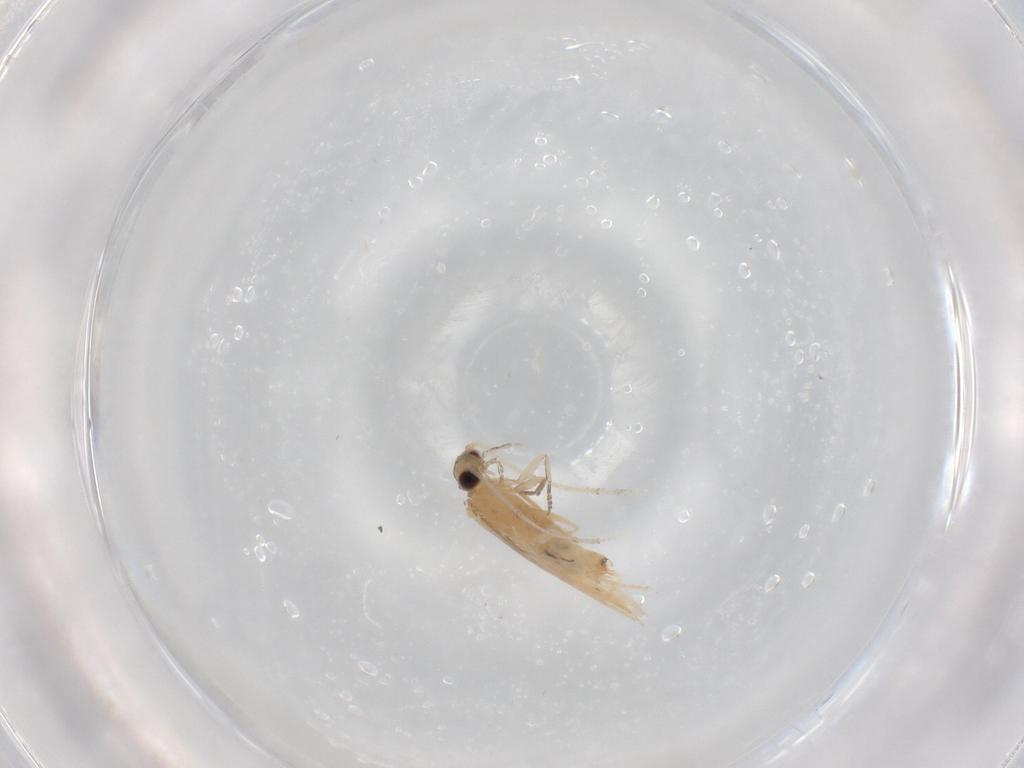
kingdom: Animalia
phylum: Arthropoda
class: Insecta
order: Trichoptera
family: Hydroptilidae
